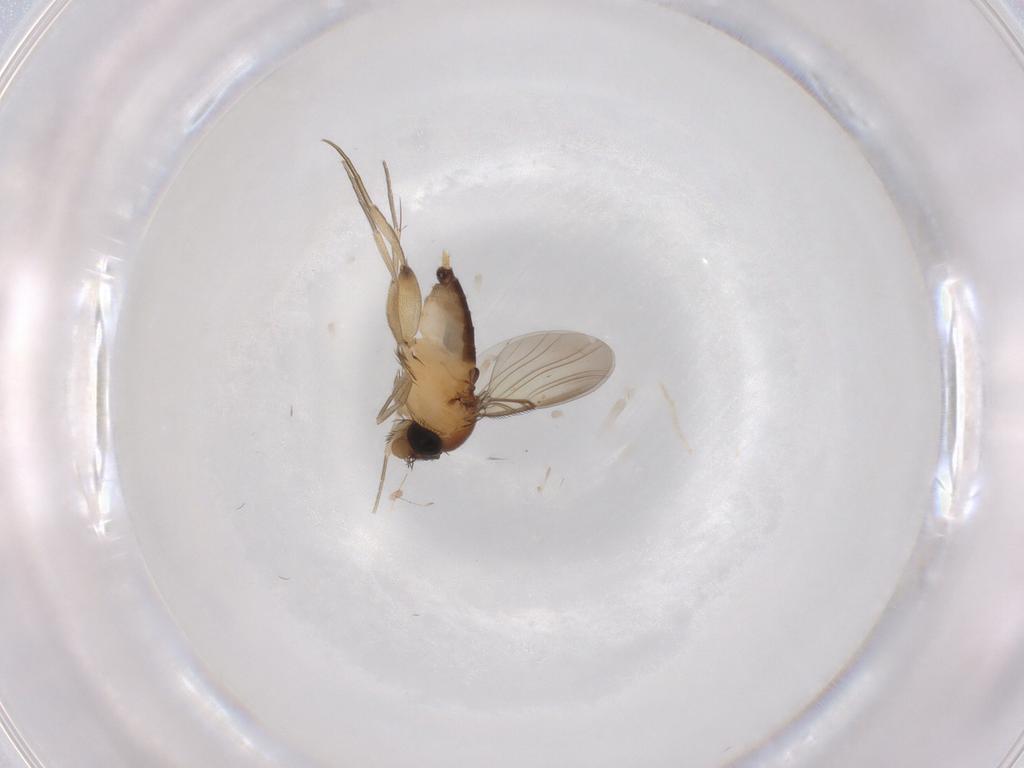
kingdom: Animalia
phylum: Arthropoda
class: Insecta
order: Diptera
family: Phoridae
